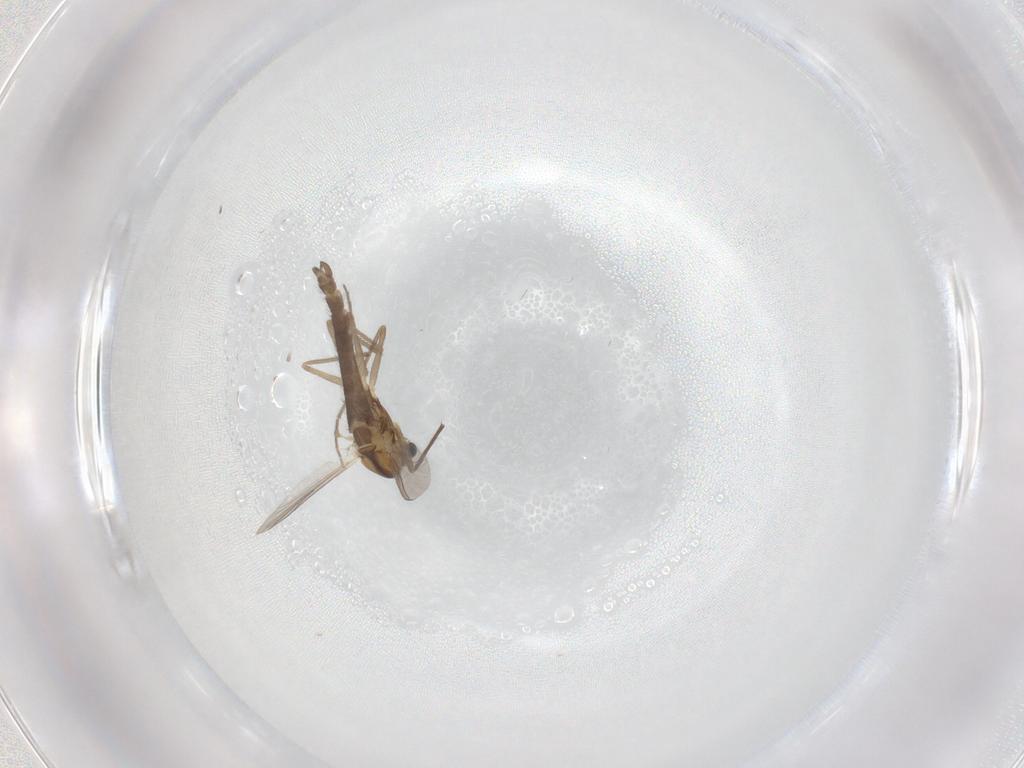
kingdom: Animalia
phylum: Arthropoda
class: Insecta
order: Diptera
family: Chironomidae
